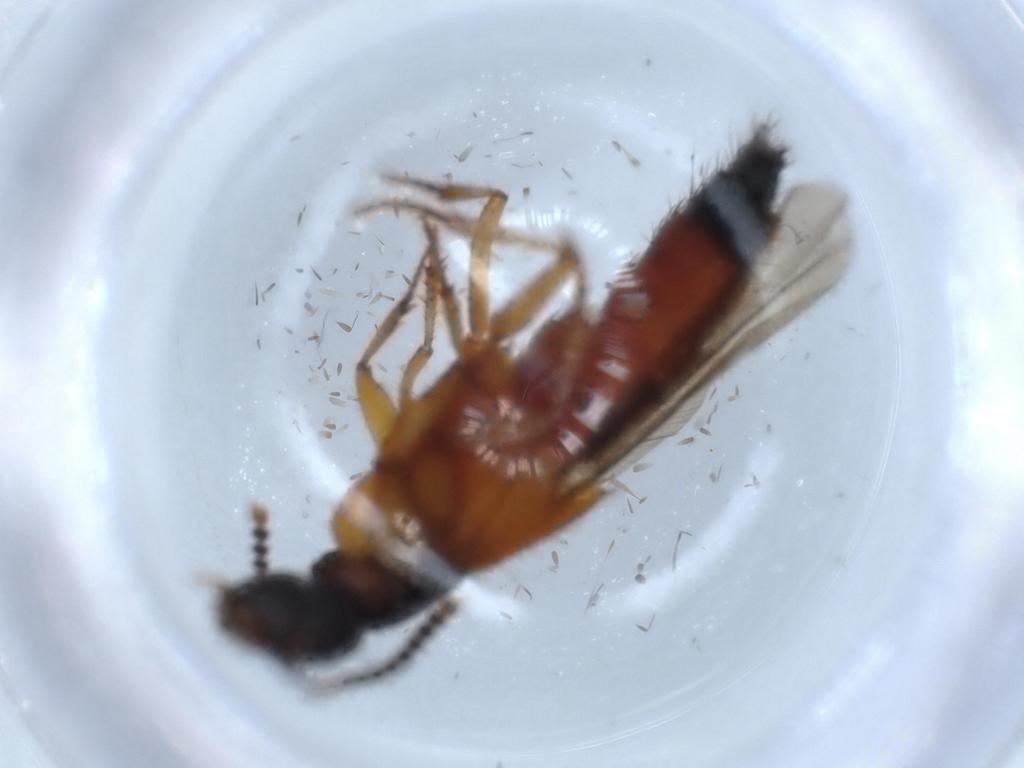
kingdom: Animalia
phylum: Arthropoda
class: Insecta
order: Coleoptera
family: Staphylinidae
